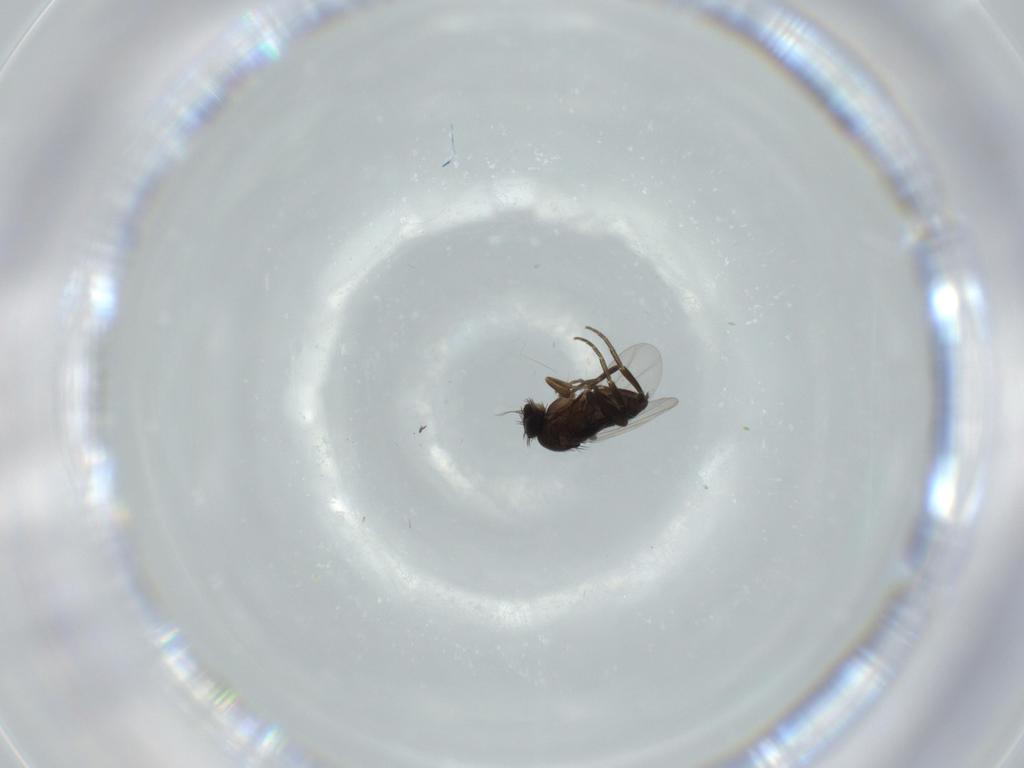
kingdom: Animalia
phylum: Arthropoda
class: Insecta
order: Diptera
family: Phoridae
